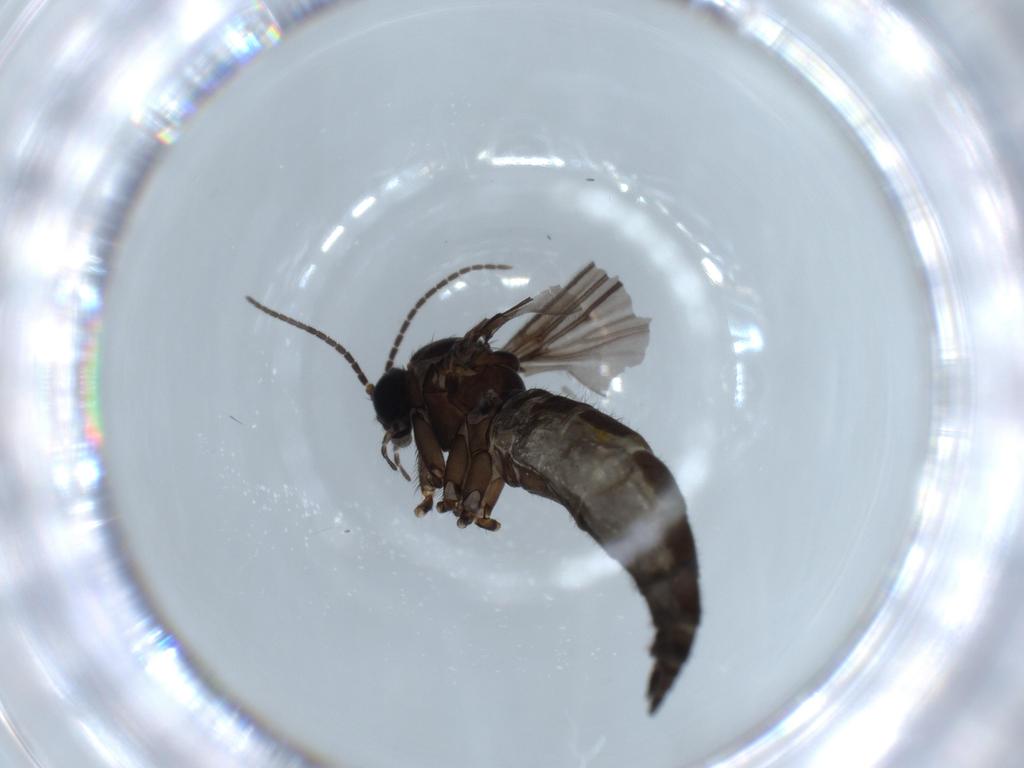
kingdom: Animalia
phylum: Arthropoda
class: Insecta
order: Diptera
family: Sciaridae
